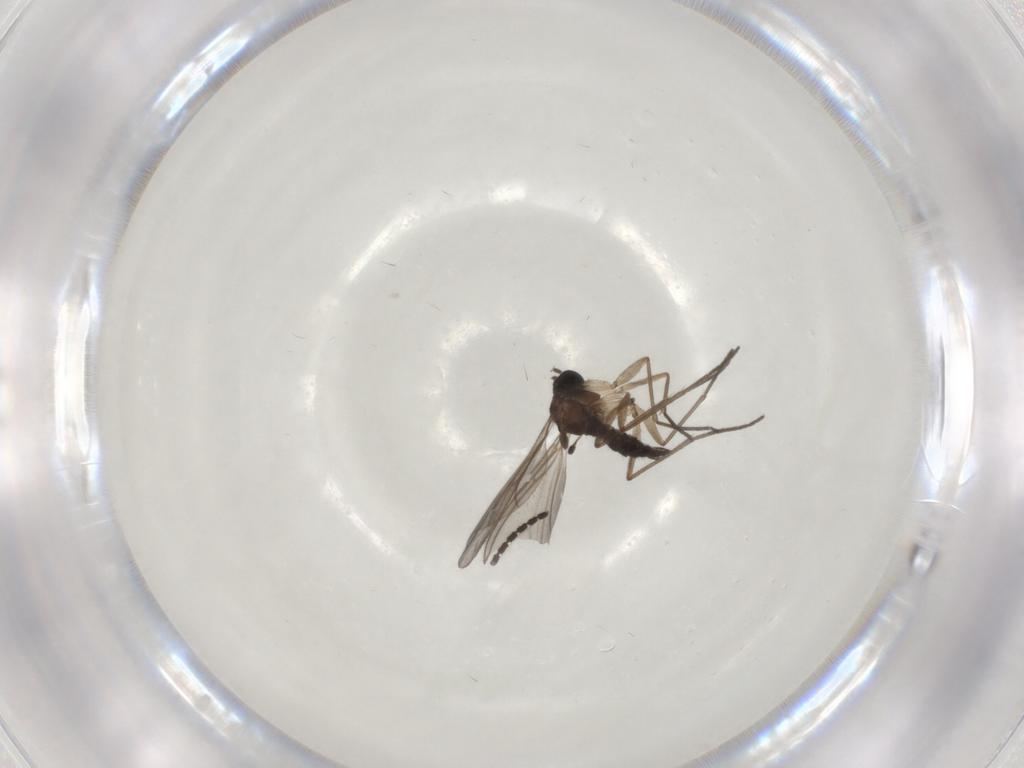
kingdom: Animalia
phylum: Arthropoda
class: Insecta
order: Diptera
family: Sciaridae
